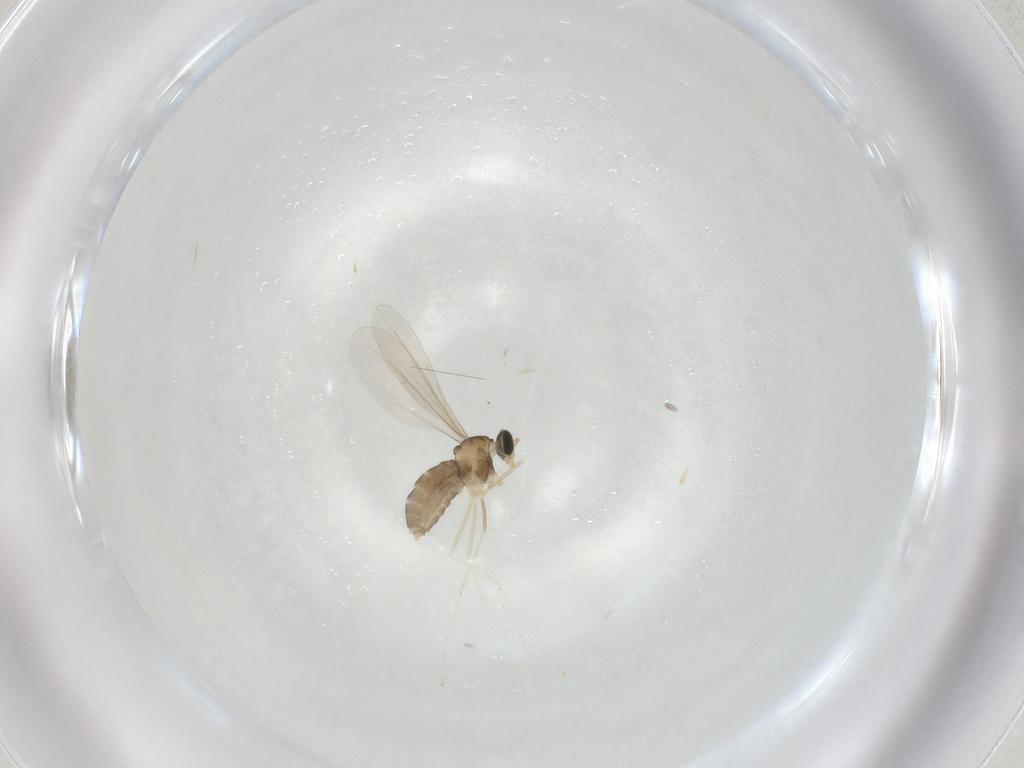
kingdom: Animalia
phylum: Arthropoda
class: Insecta
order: Diptera
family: Cecidomyiidae
